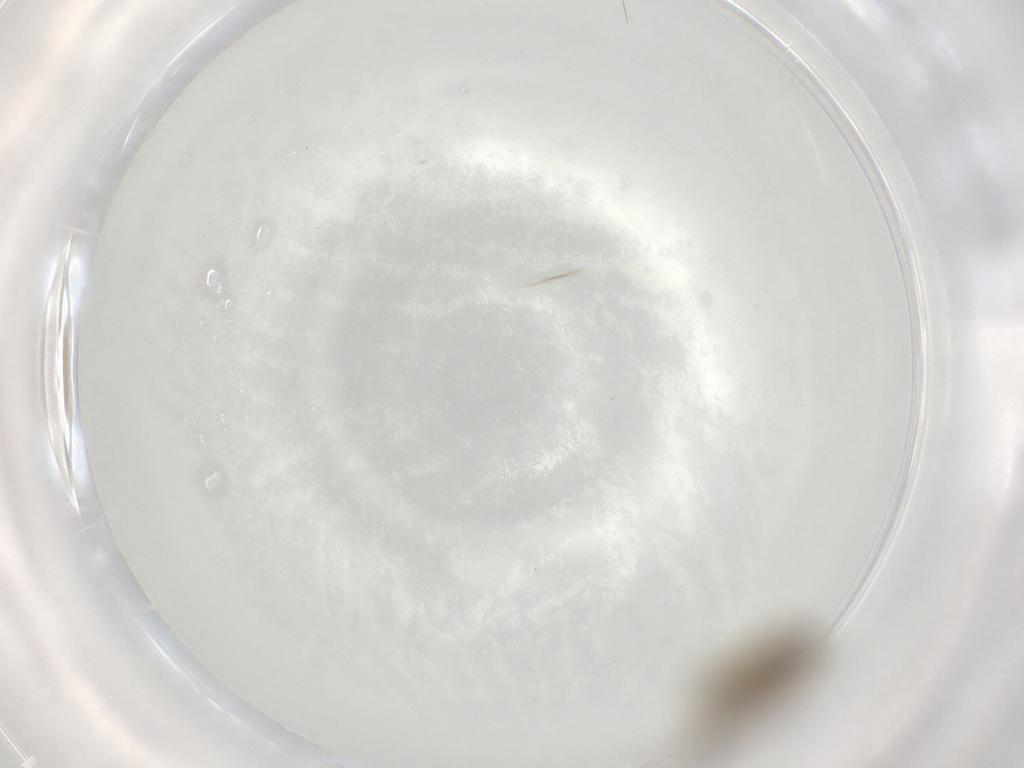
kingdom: Animalia
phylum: Arthropoda
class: Insecta
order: Diptera
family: Chironomidae
